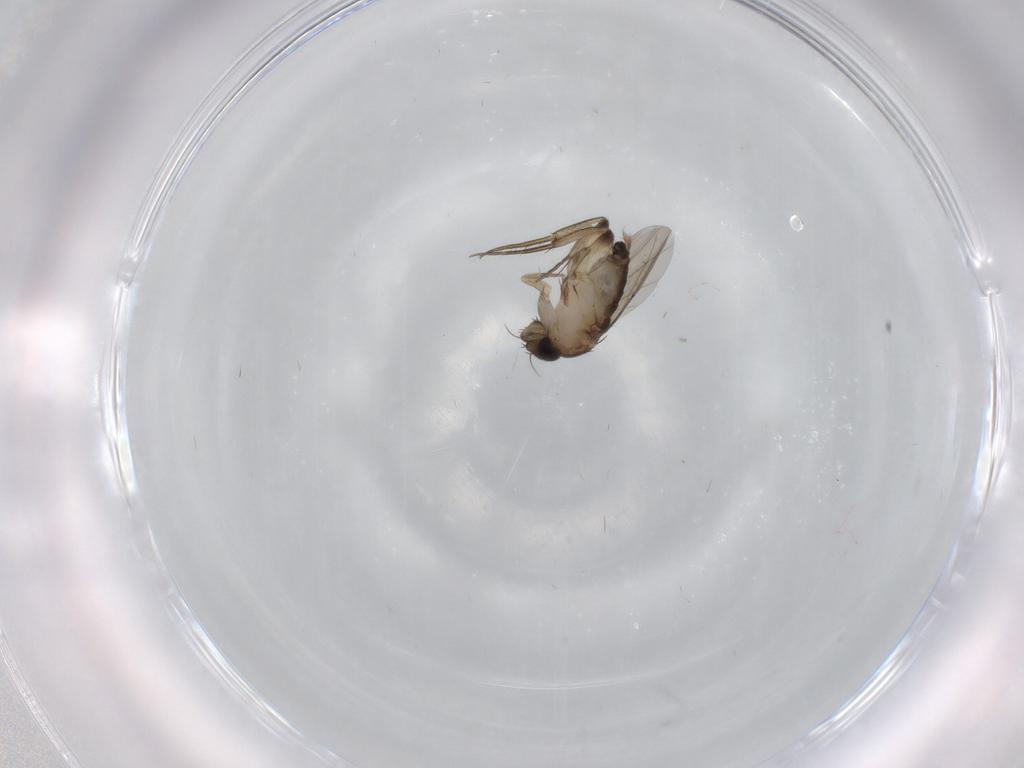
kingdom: Animalia
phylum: Arthropoda
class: Insecta
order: Diptera
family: Phoridae
